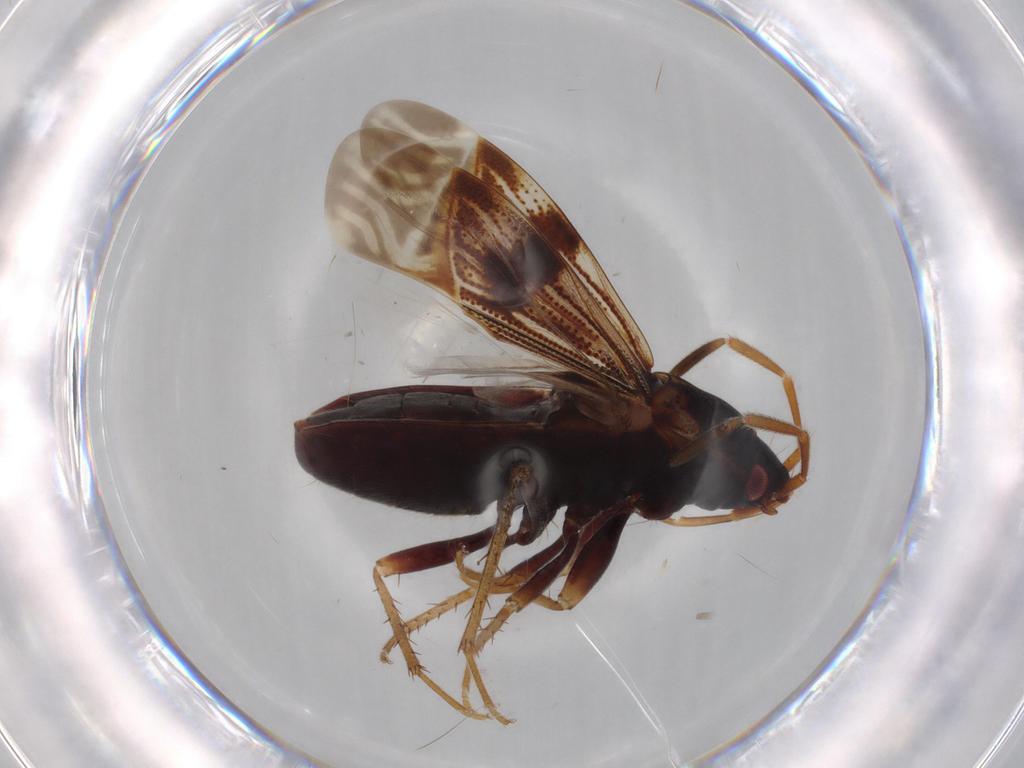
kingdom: Animalia
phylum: Arthropoda
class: Insecta
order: Hemiptera
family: Rhyparochromidae
